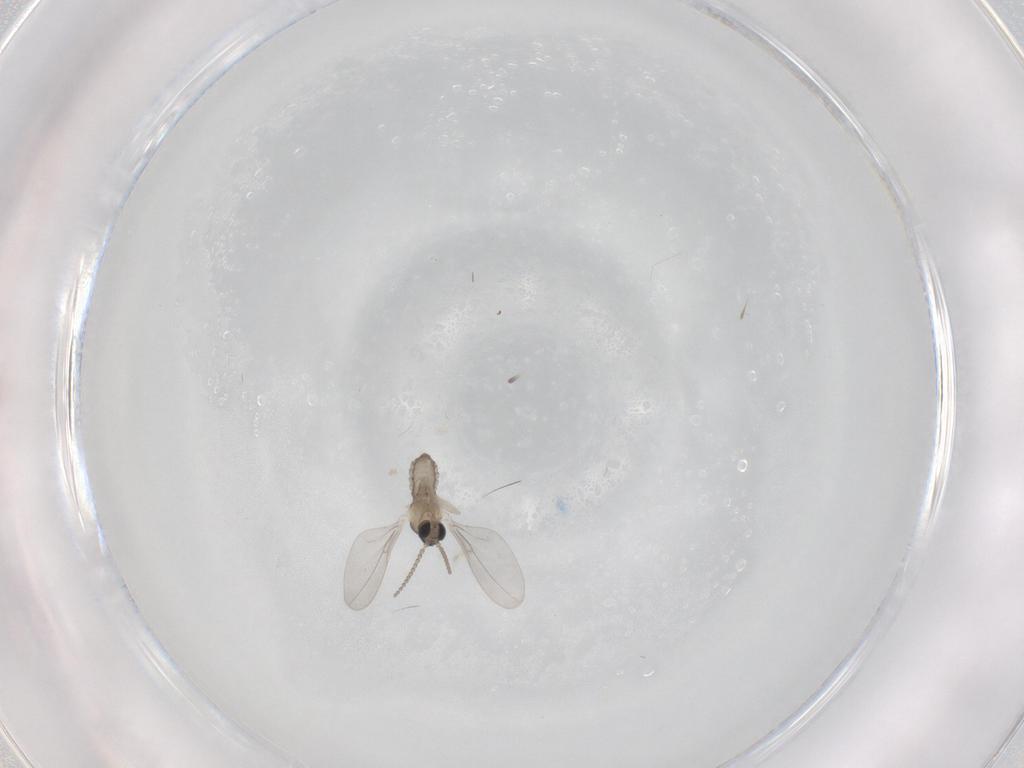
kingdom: Animalia
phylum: Arthropoda
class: Insecta
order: Diptera
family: Cecidomyiidae
